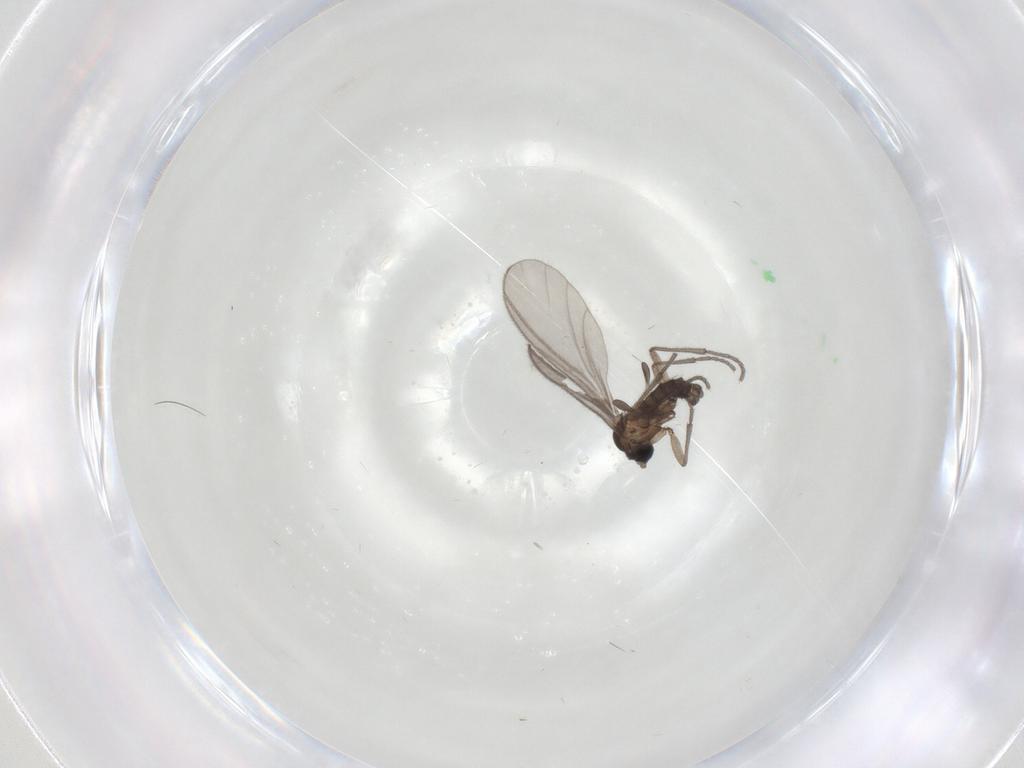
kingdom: Animalia
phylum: Arthropoda
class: Insecta
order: Diptera
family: Sciaridae
